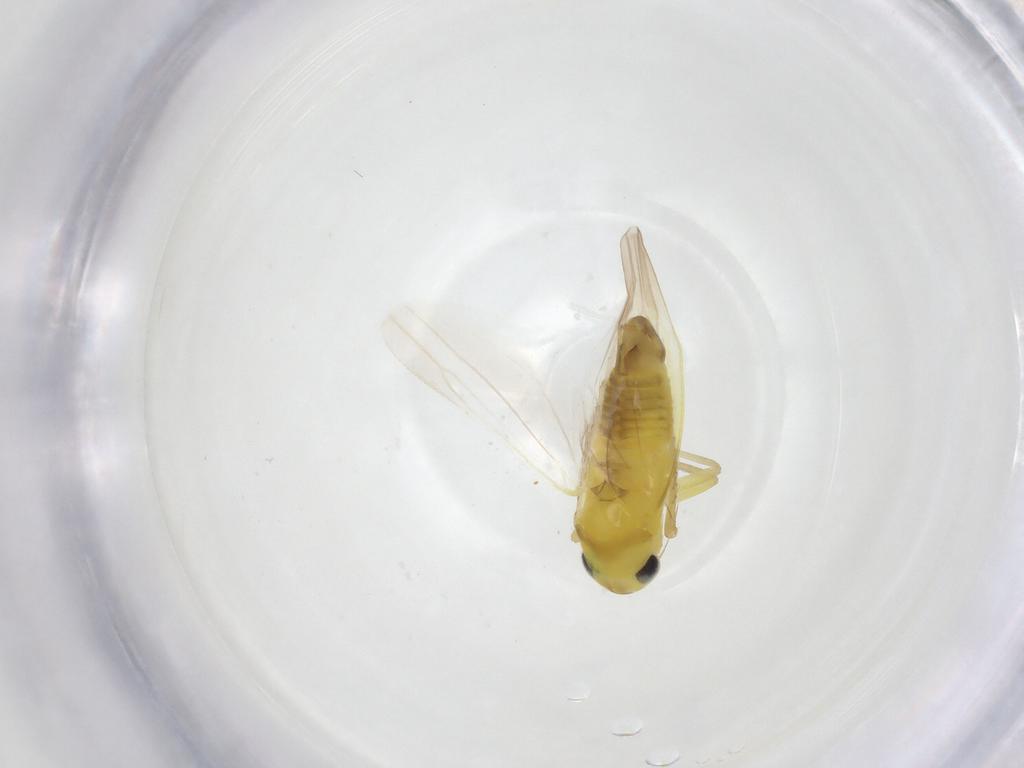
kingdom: Animalia
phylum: Arthropoda
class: Insecta
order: Hemiptera
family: Cicadellidae
